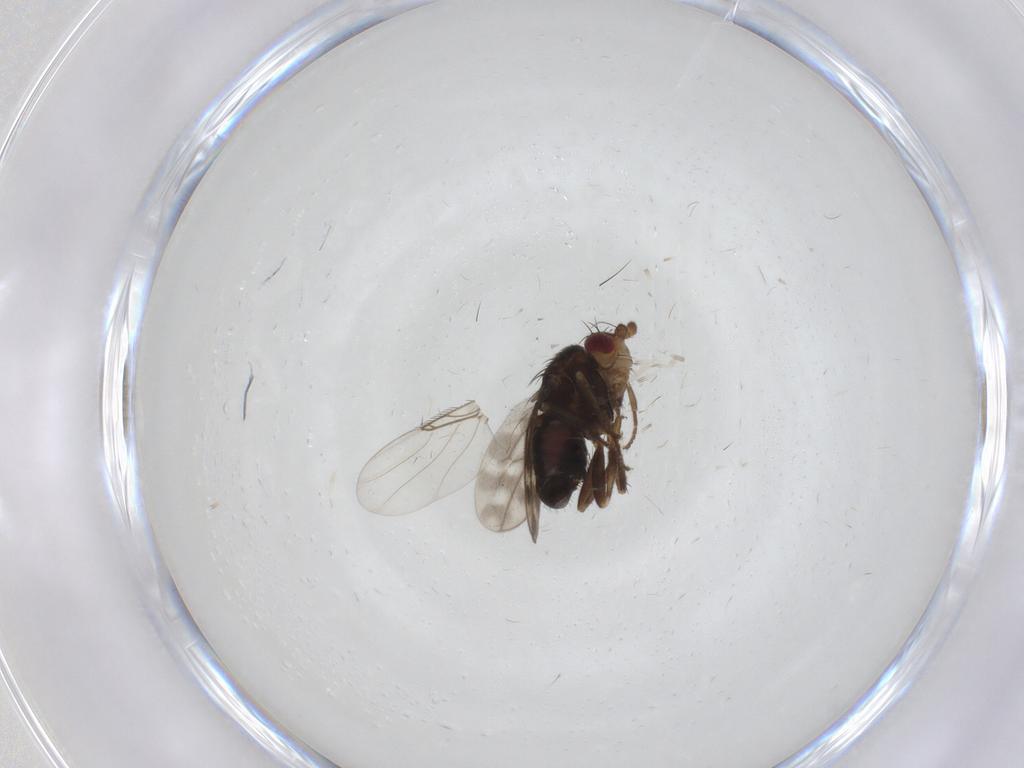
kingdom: Animalia
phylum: Arthropoda
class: Insecta
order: Diptera
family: Sphaeroceridae
